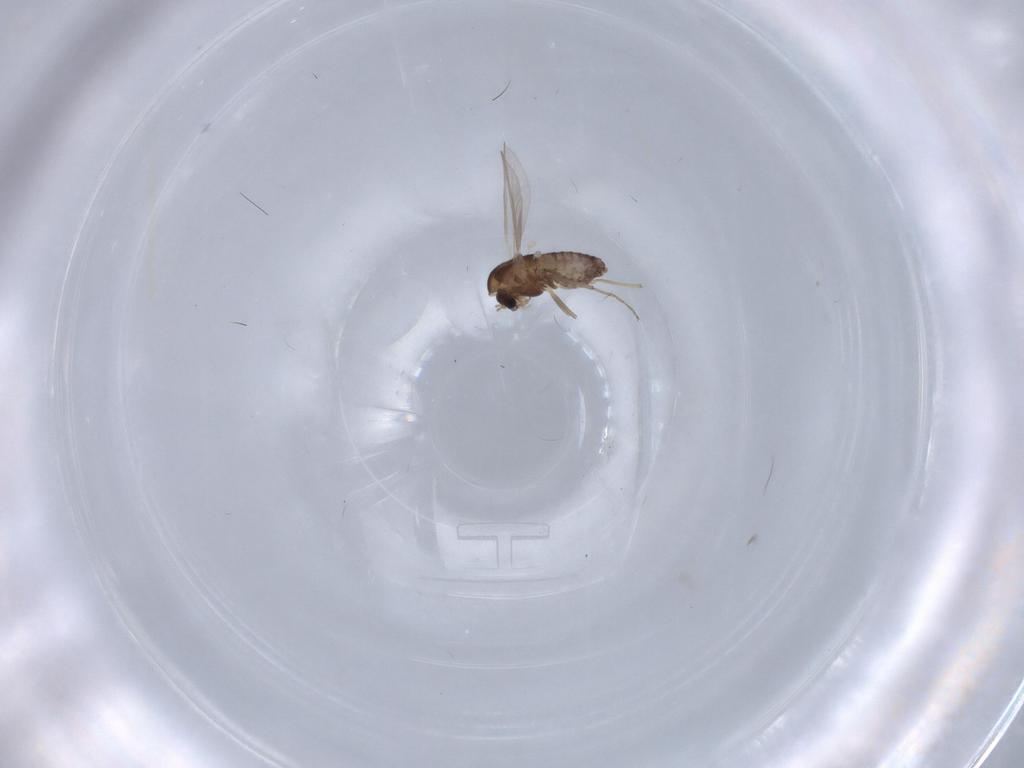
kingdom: Animalia
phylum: Arthropoda
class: Insecta
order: Diptera
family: Chironomidae
